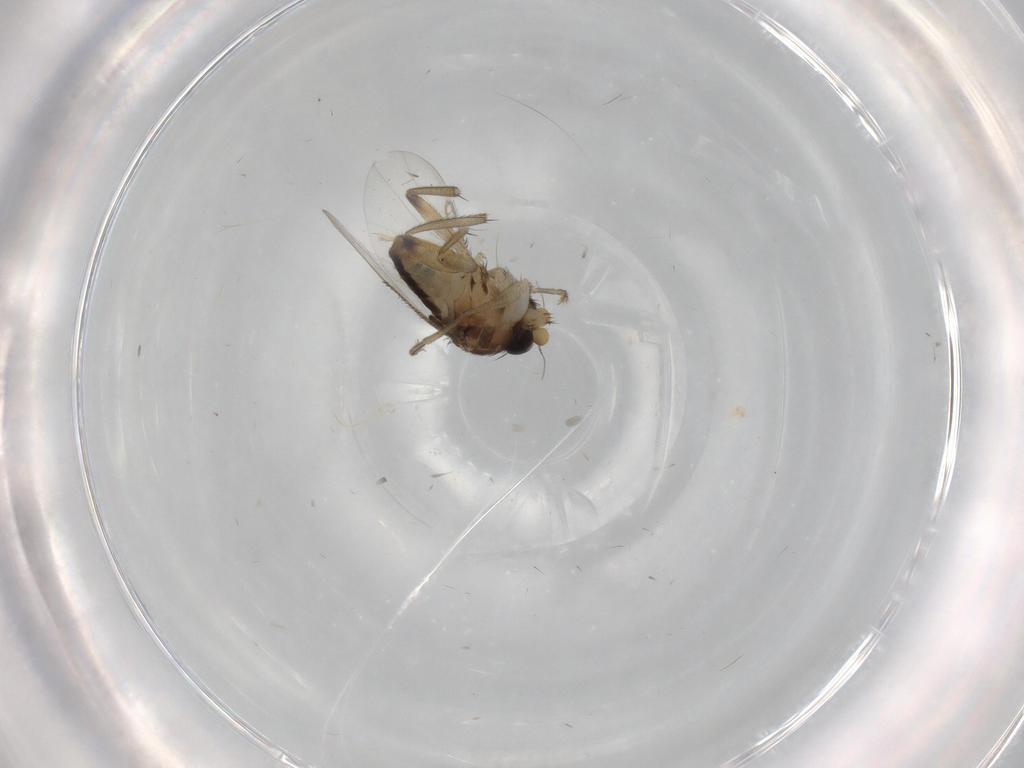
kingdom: Animalia
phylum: Arthropoda
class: Insecta
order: Diptera
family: Phoridae
